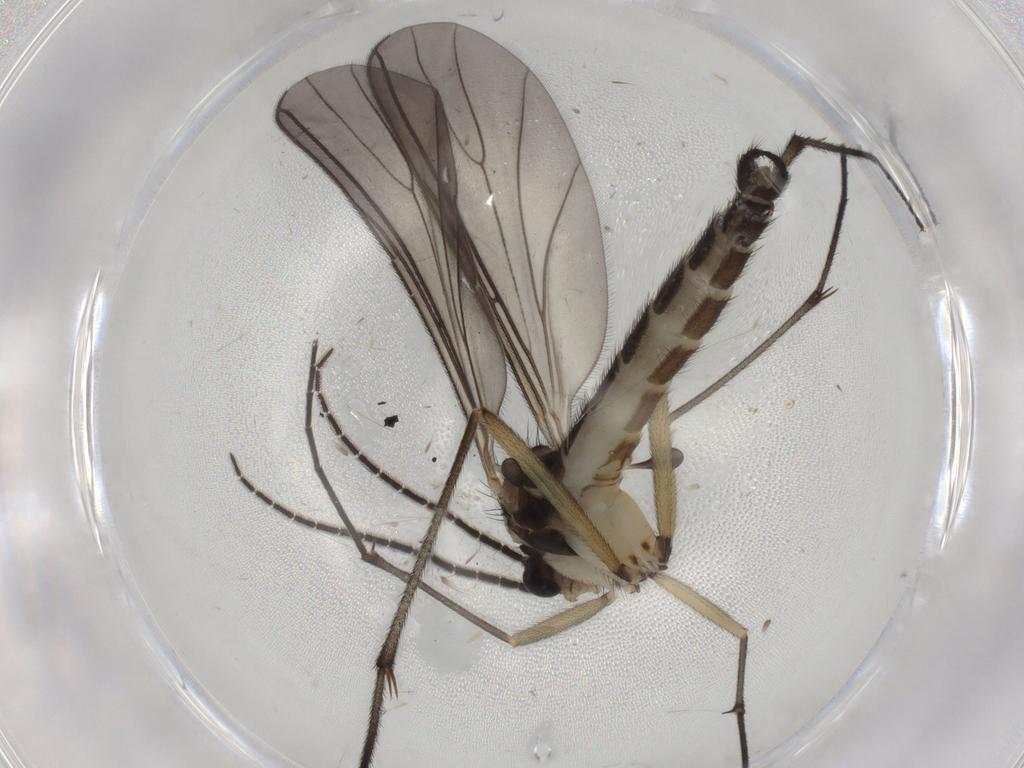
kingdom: Animalia
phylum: Arthropoda
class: Insecta
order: Diptera
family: Sciaridae
